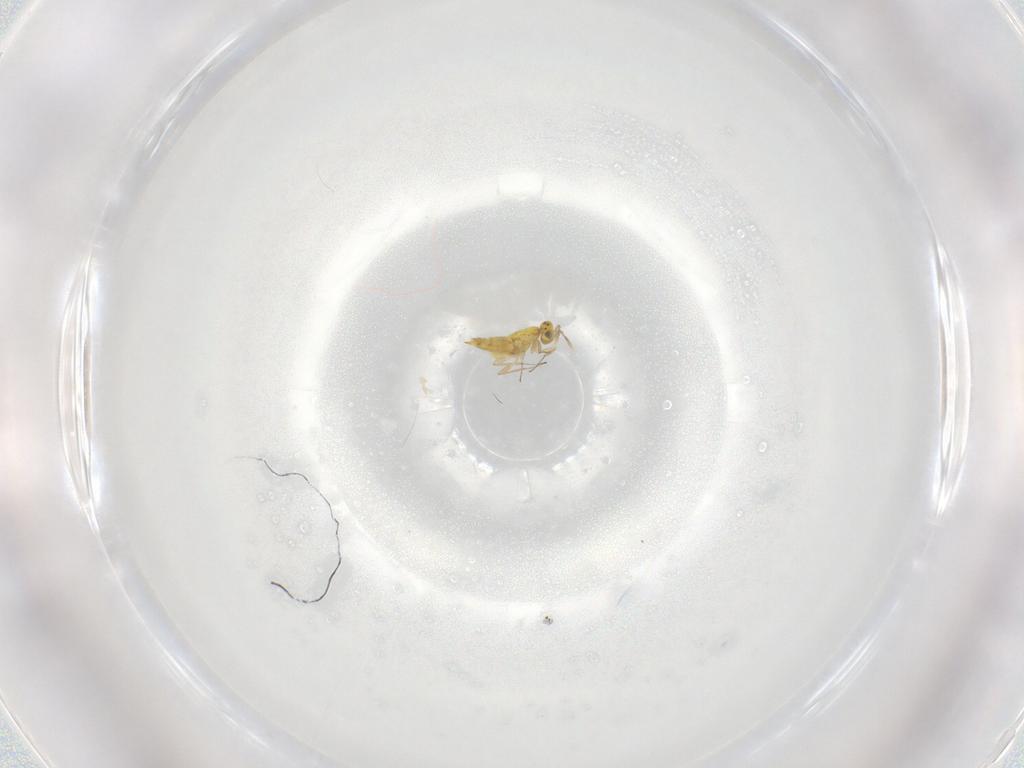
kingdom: Animalia
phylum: Arthropoda
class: Insecta
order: Hymenoptera
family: Aphelinidae
